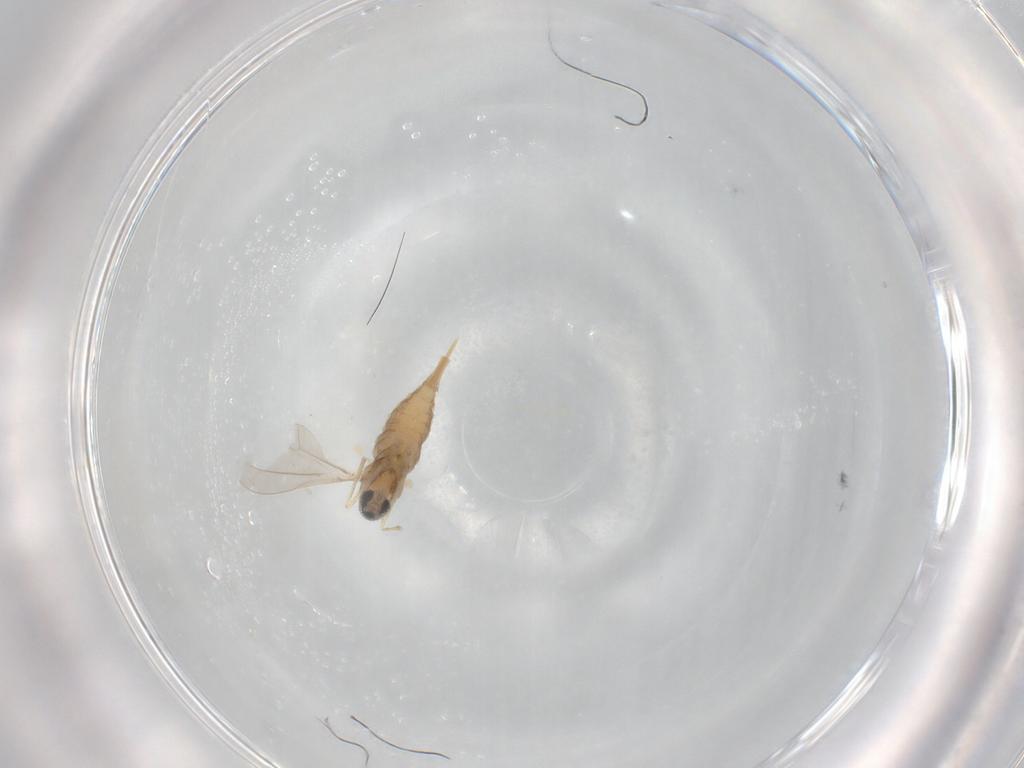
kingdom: Animalia
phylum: Arthropoda
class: Insecta
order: Diptera
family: Cecidomyiidae
